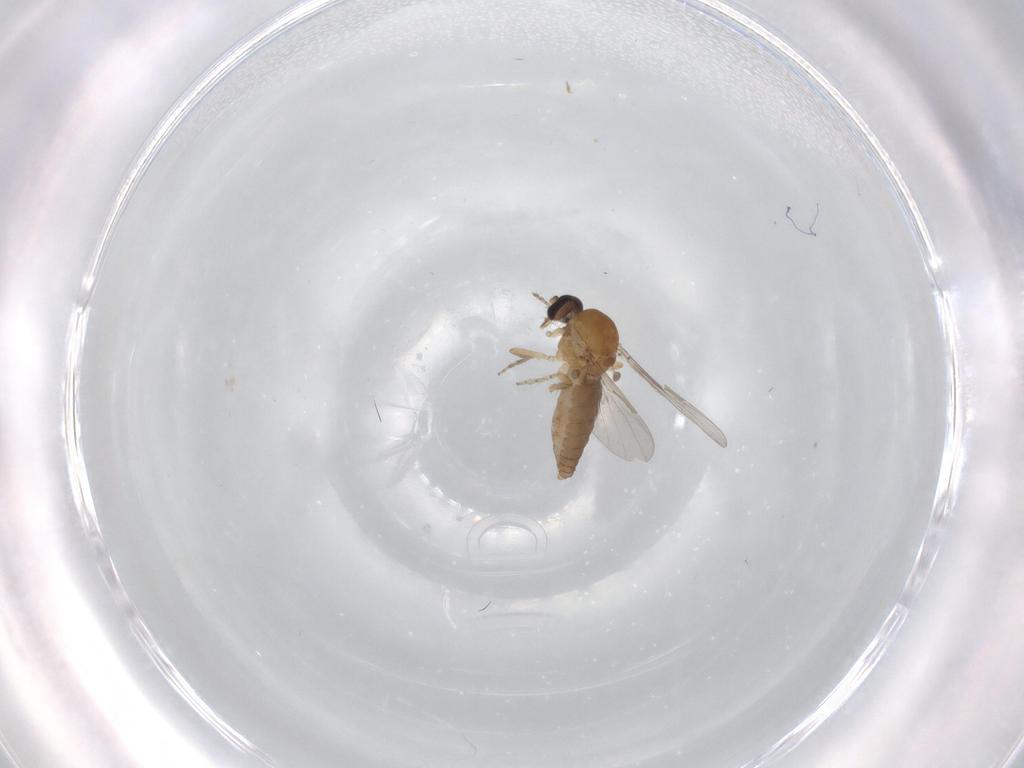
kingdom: Animalia
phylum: Arthropoda
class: Insecta
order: Diptera
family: Ceratopogonidae
